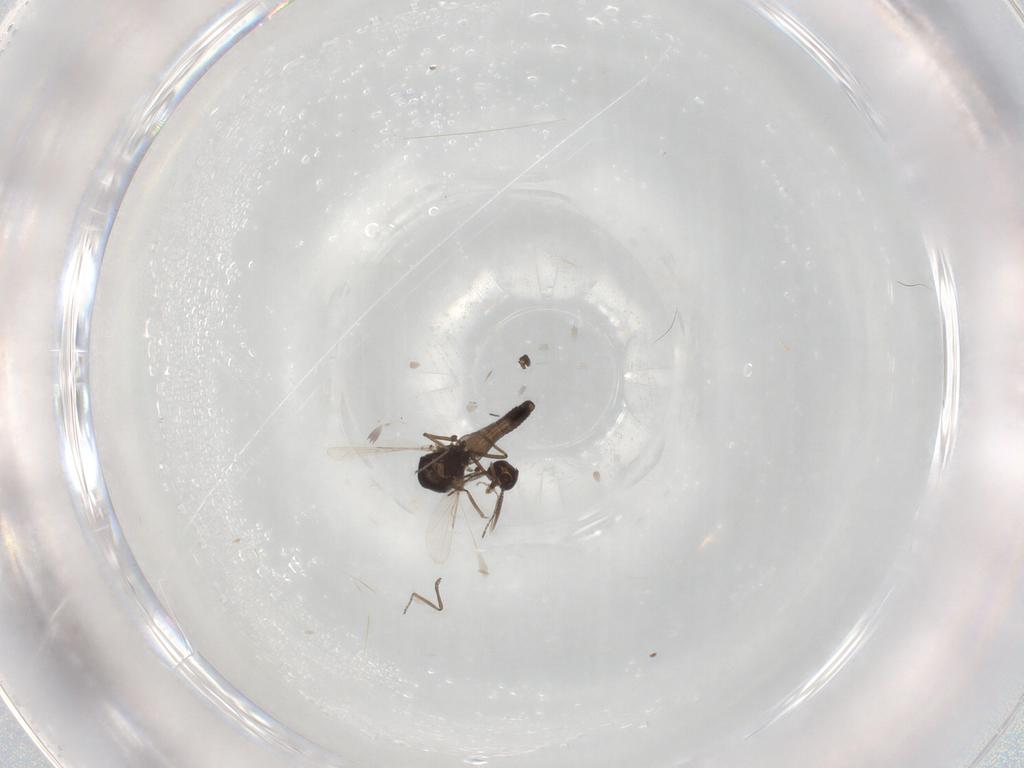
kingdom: Animalia
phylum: Arthropoda
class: Insecta
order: Diptera
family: Ceratopogonidae
